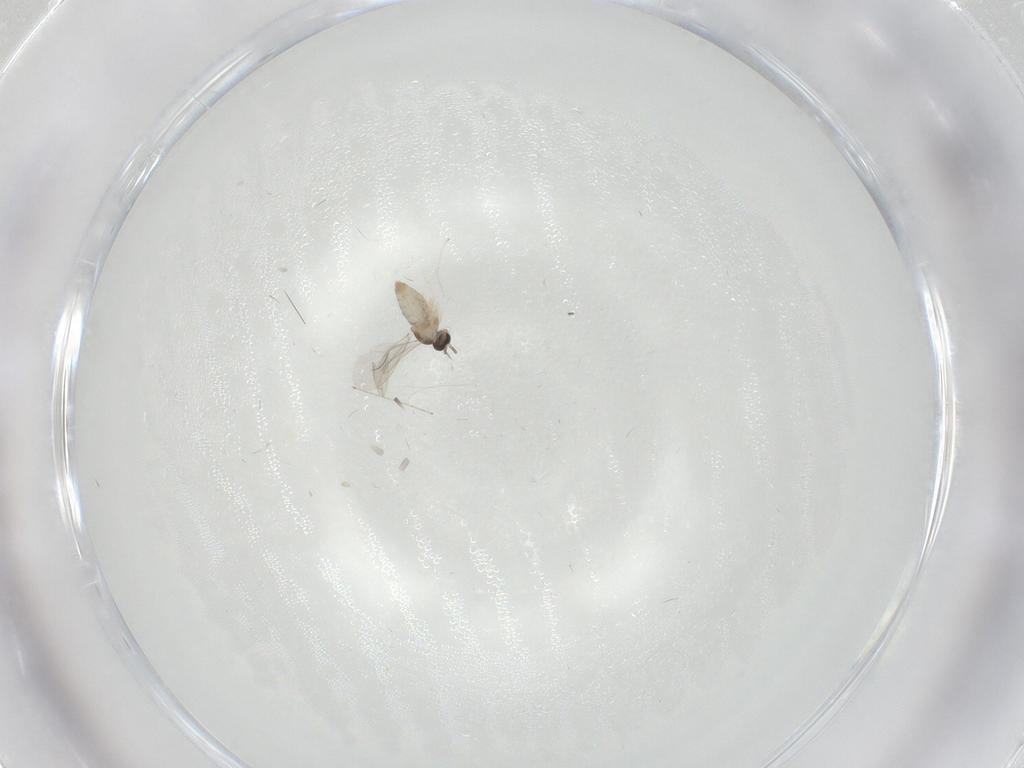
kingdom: Animalia
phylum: Arthropoda
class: Insecta
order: Diptera
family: Cecidomyiidae
